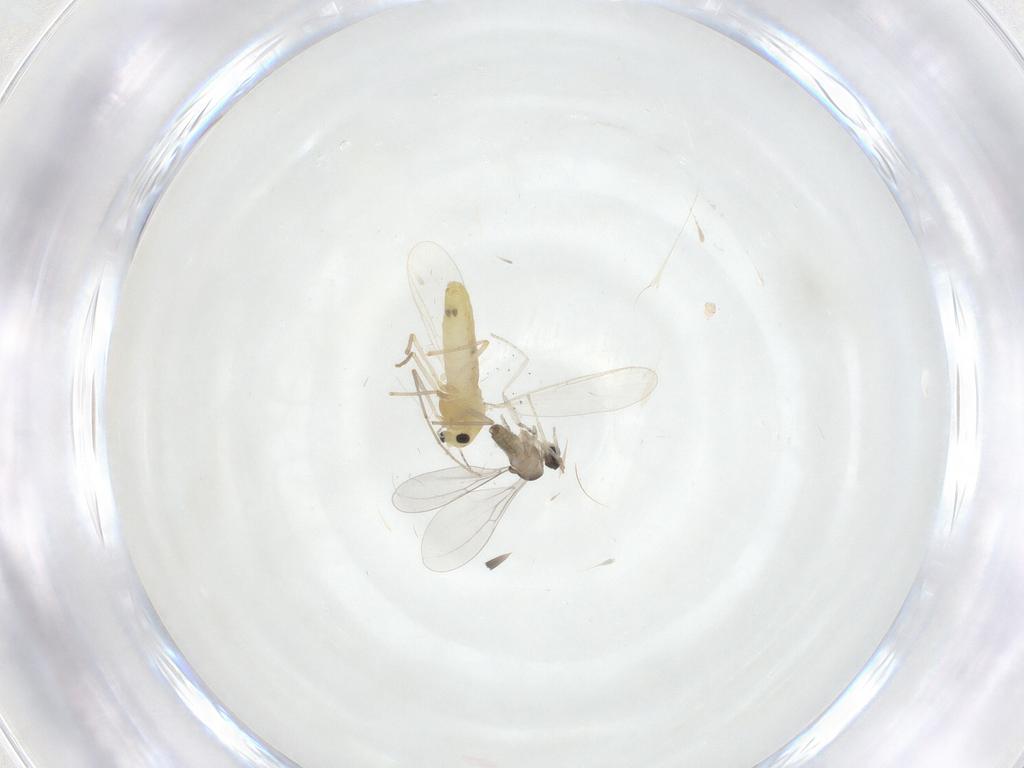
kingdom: Animalia
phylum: Arthropoda
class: Insecta
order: Diptera
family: Cecidomyiidae
